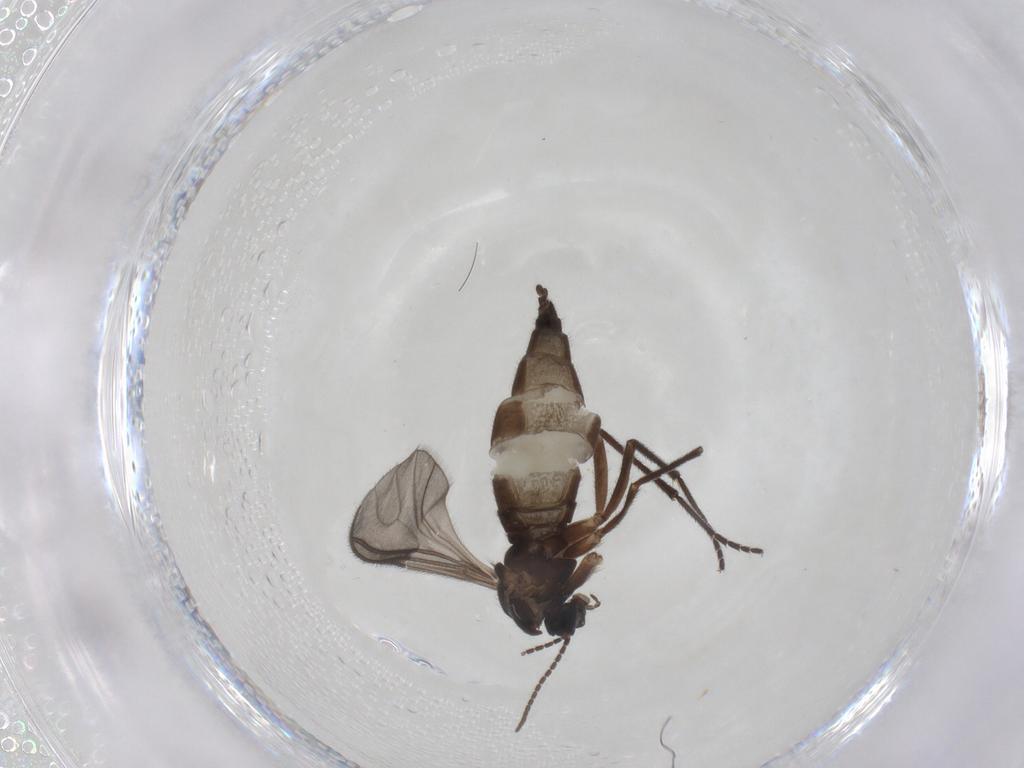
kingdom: Animalia
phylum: Arthropoda
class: Insecta
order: Diptera
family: Sciaridae
